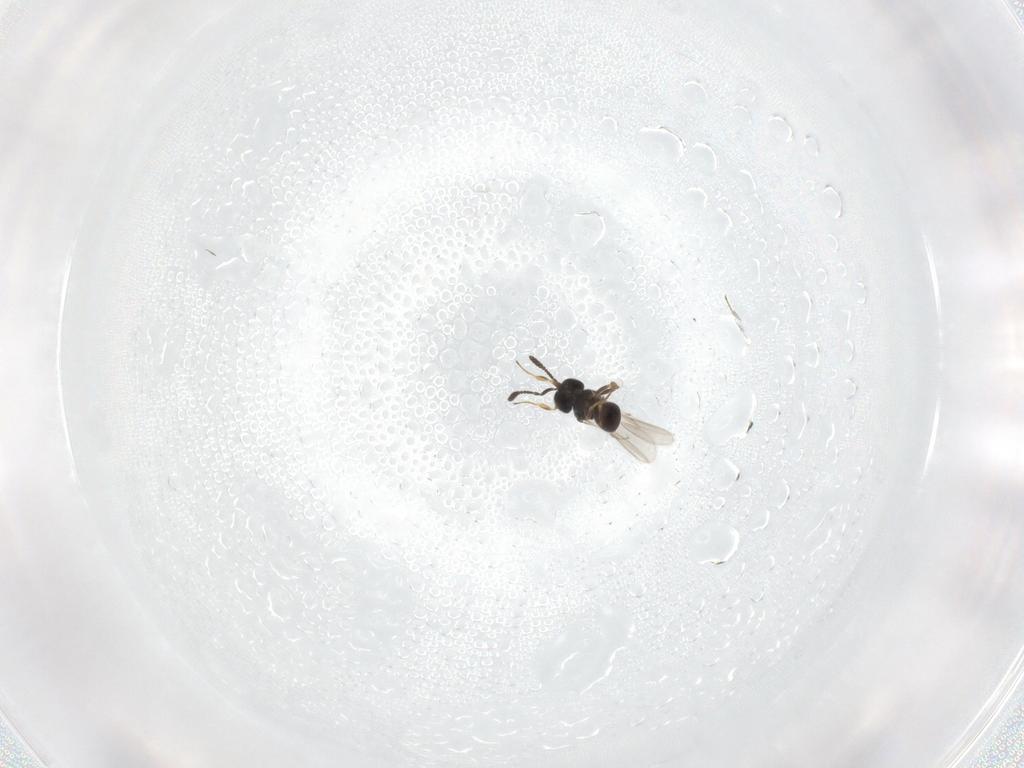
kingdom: Animalia
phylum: Arthropoda
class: Insecta
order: Hymenoptera
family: Scelionidae
